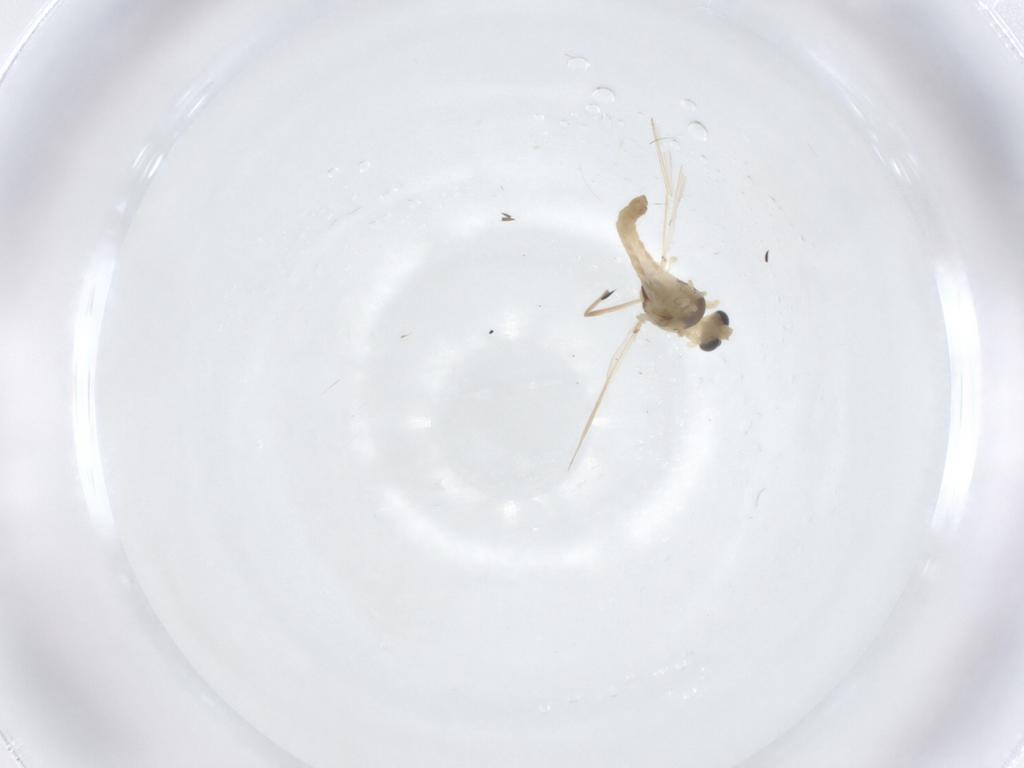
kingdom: Animalia
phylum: Arthropoda
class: Insecta
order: Diptera
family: Chironomidae
